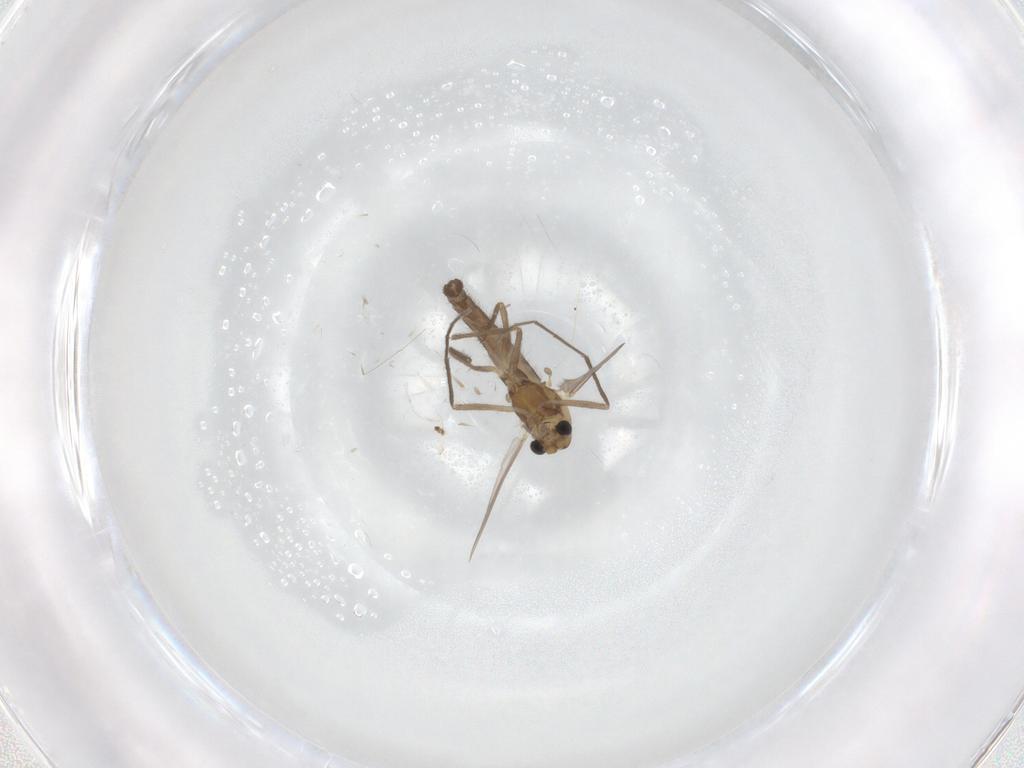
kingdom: Animalia
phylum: Arthropoda
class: Insecta
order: Diptera
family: Chironomidae
